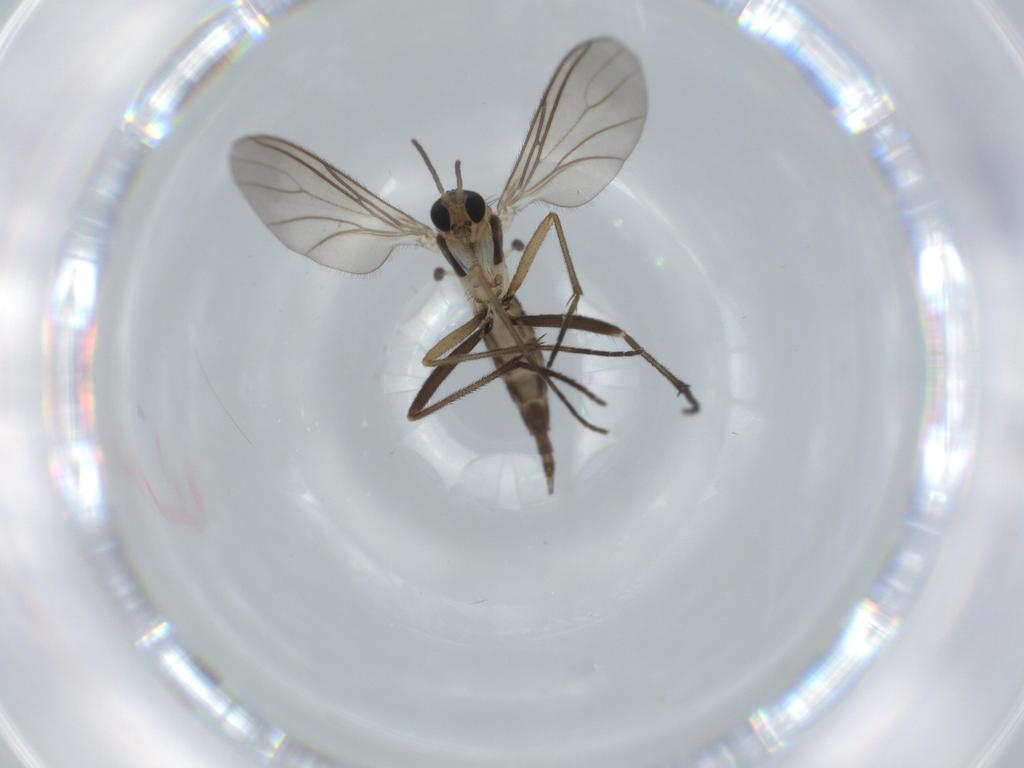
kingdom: Animalia
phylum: Arthropoda
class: Insecta
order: Diptera
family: Sciaridae
